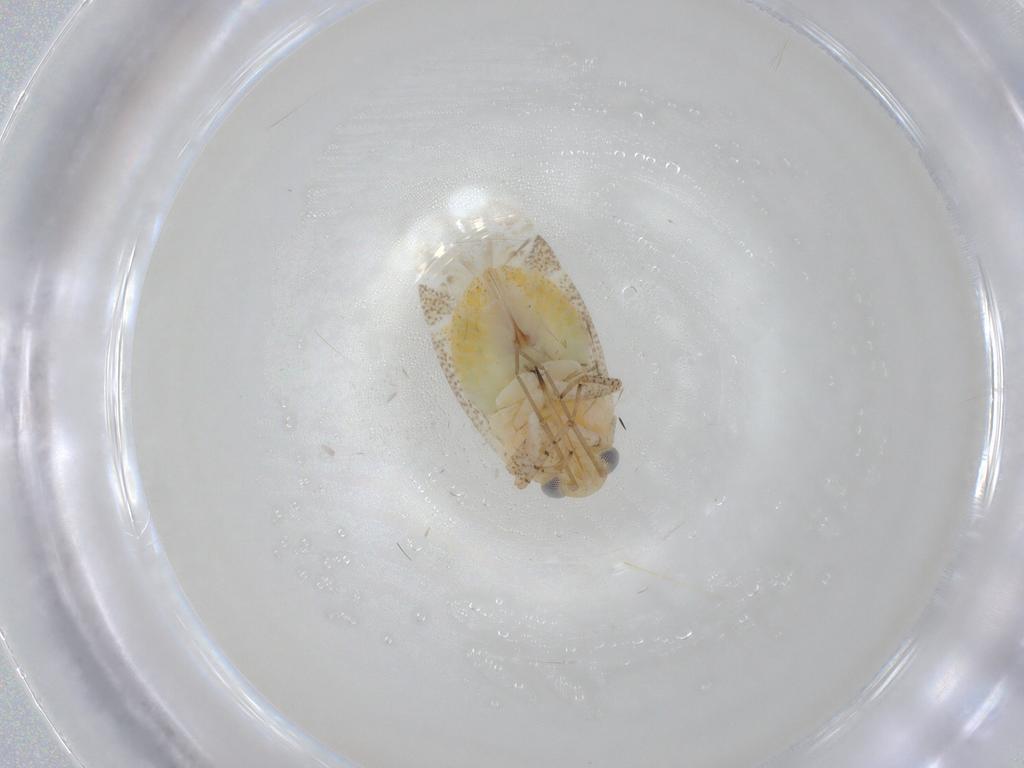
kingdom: Animalia
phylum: Arthropoda
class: Insecta
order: Hemiptera
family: Miridae
